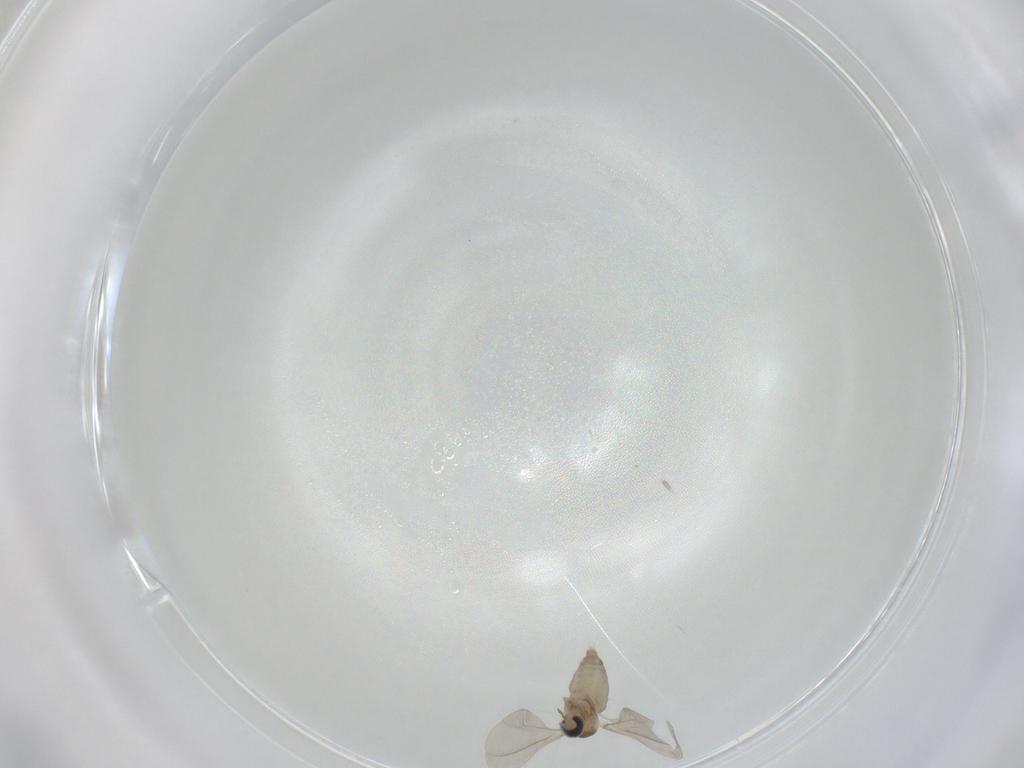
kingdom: Animalia
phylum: Arthropoda
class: Insecta
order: Diptera
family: Cecidomyiidae
